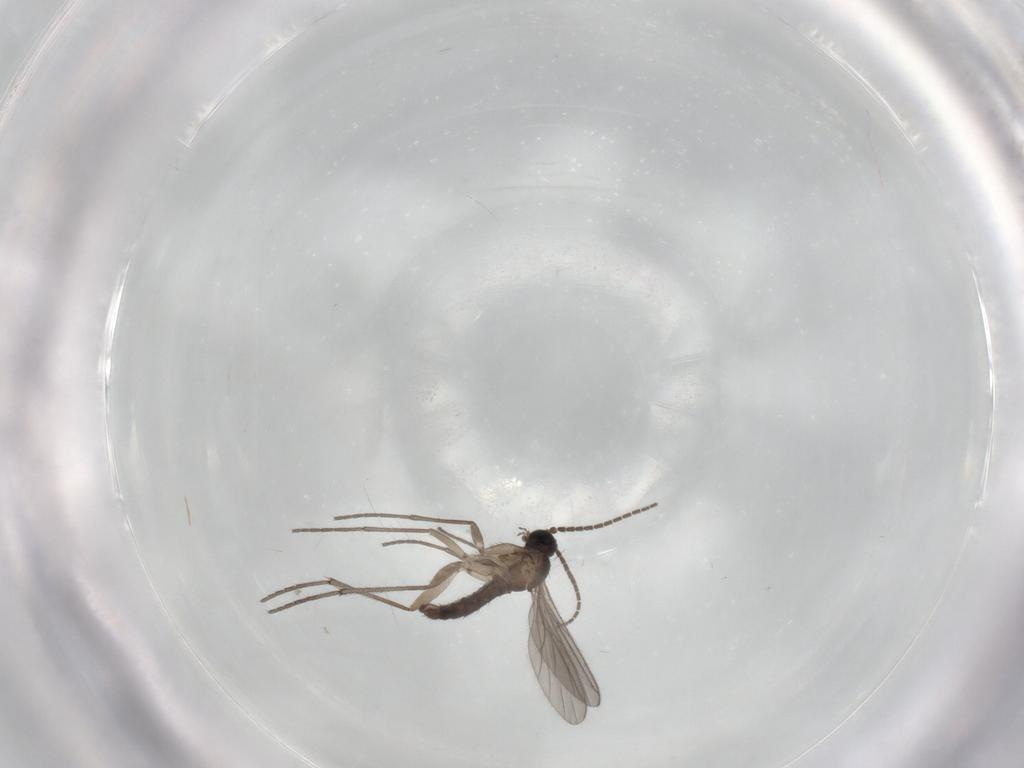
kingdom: Animalia
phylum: Arthropoda
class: Insecta
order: Diptera
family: Sciaridae
